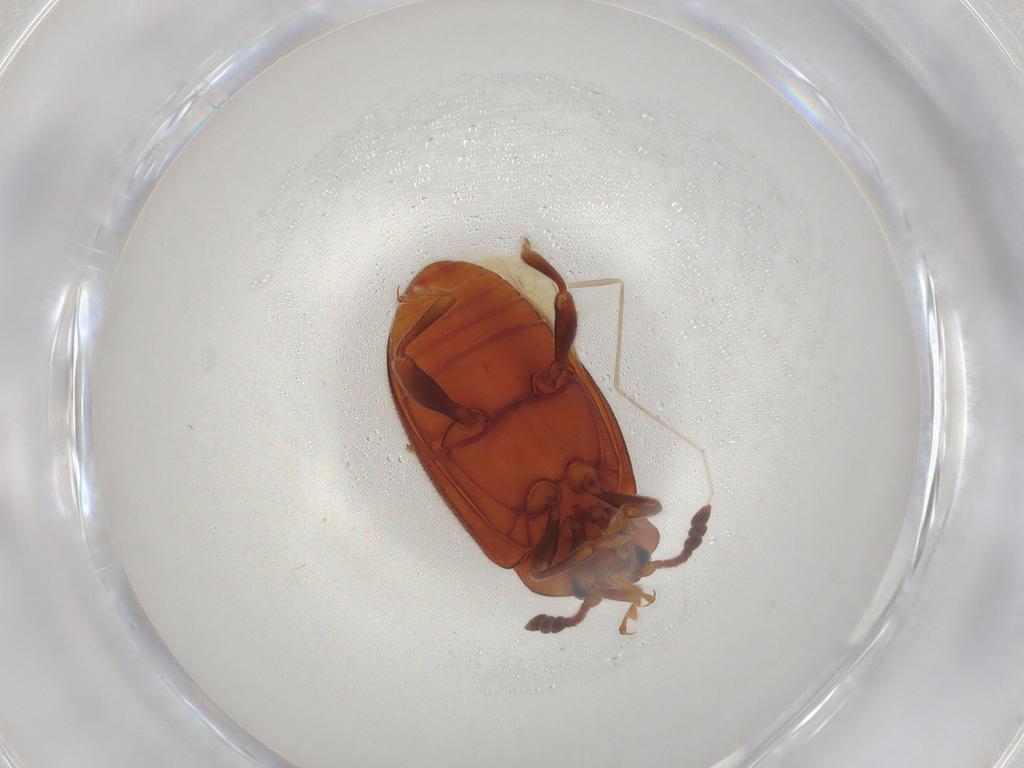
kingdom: Animalia
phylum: Arthropoda
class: Insecta
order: Coleoptera
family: Endomychidae
